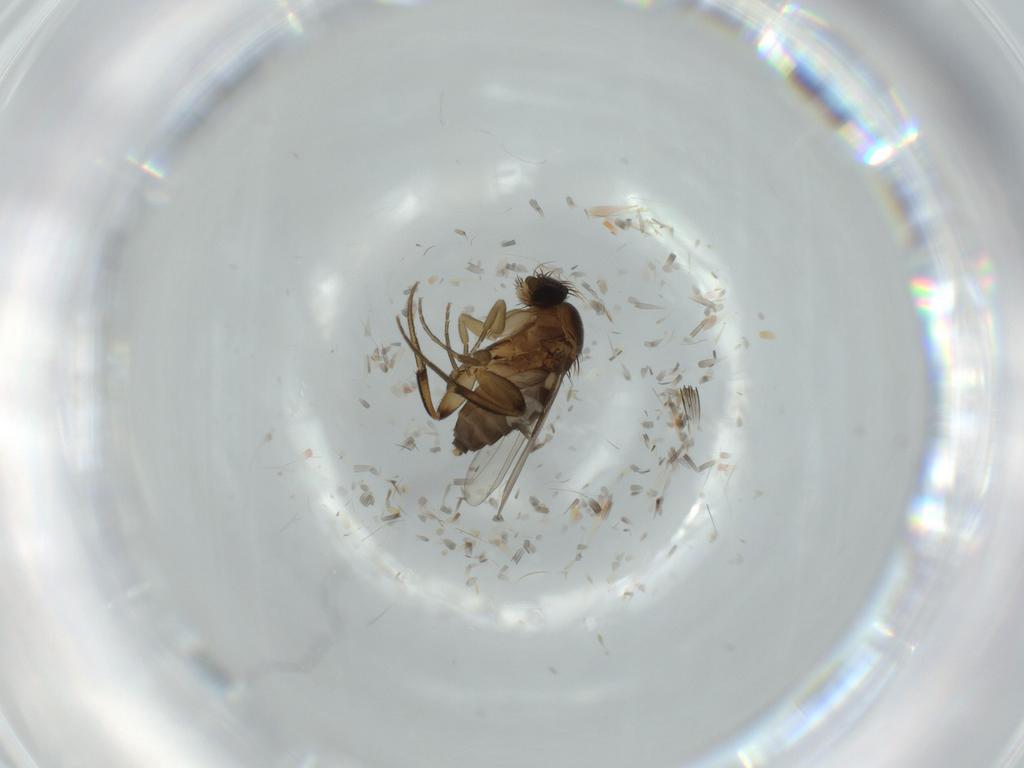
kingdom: Animalia
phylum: Arthropoda
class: Insecta
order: Diptera
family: Phoridae
